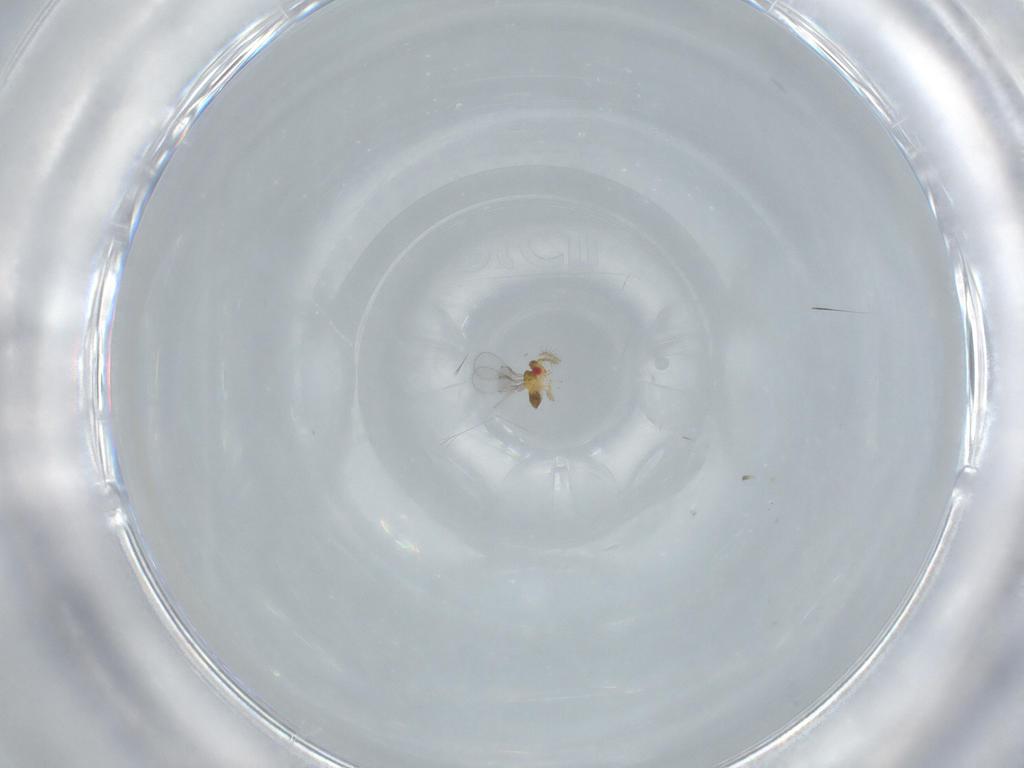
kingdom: Animalia
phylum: Arthropoda
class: Insecta
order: Hymenoptera
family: Trichogrammatidae
